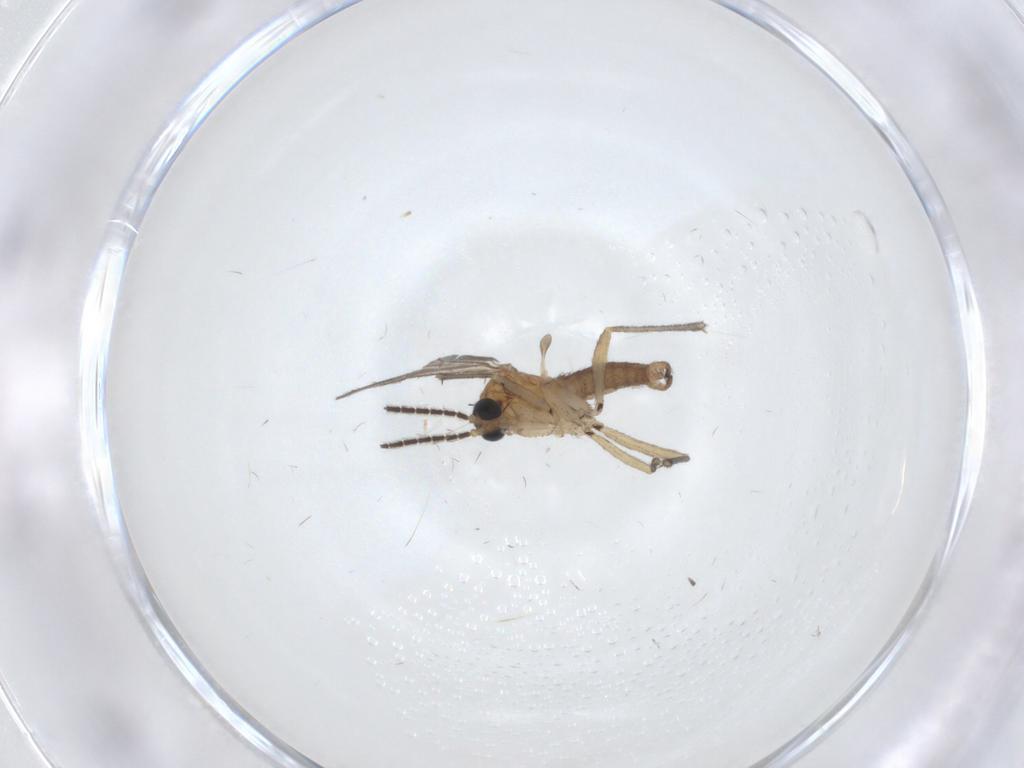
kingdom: Animalia
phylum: Arthropoda
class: Insecta
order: Diptera
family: Sciaridae
